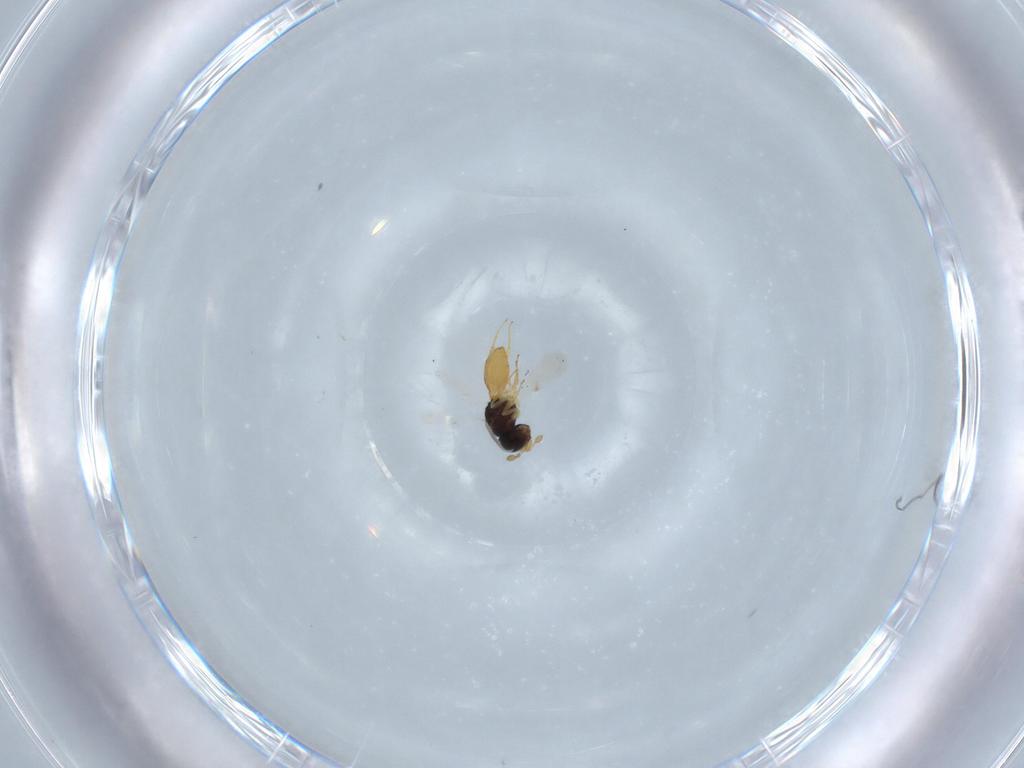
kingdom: Animalia
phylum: Arthropoda
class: Insecta
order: Hymenoptera
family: Scelionidae
